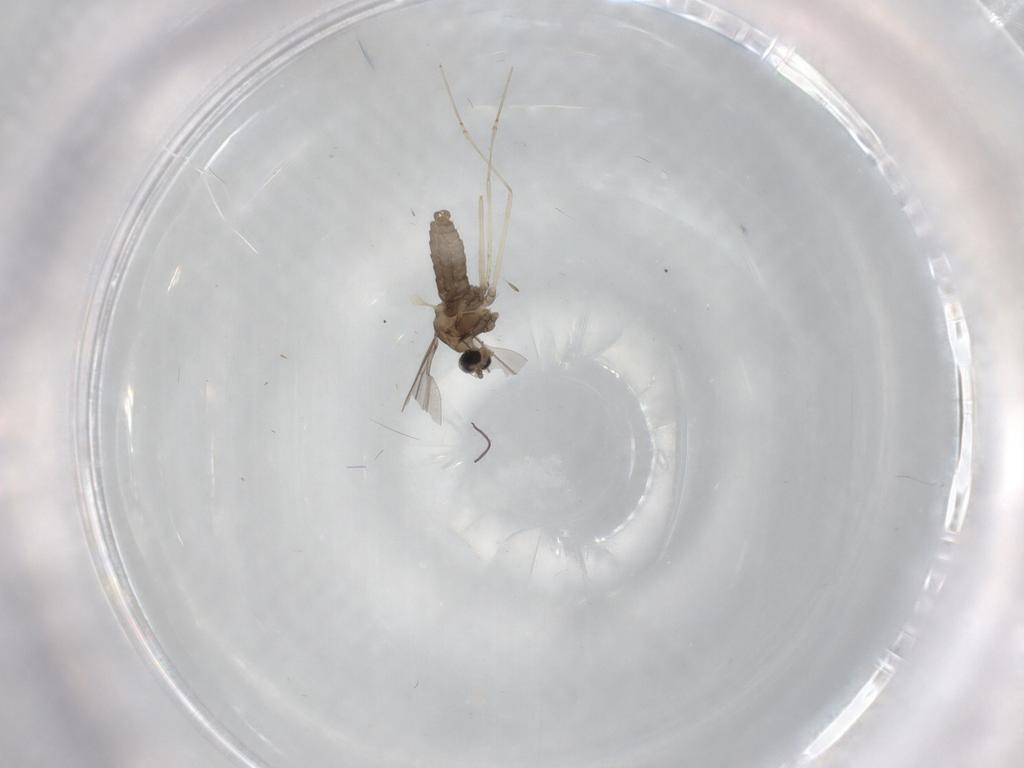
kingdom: Animalia
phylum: Arthropoda
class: Insecta
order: Diptera
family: Cecidomyiidae
